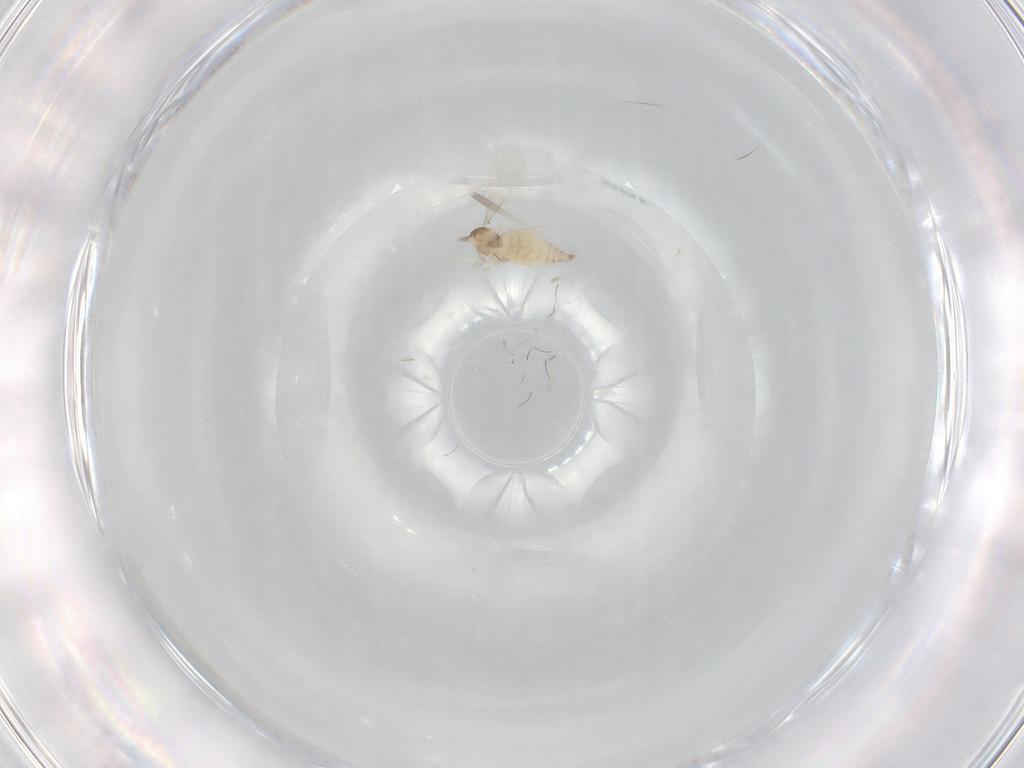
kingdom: Animalia
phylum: Arthropoda
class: Insecta
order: Diptera
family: Cecidomyiidae
